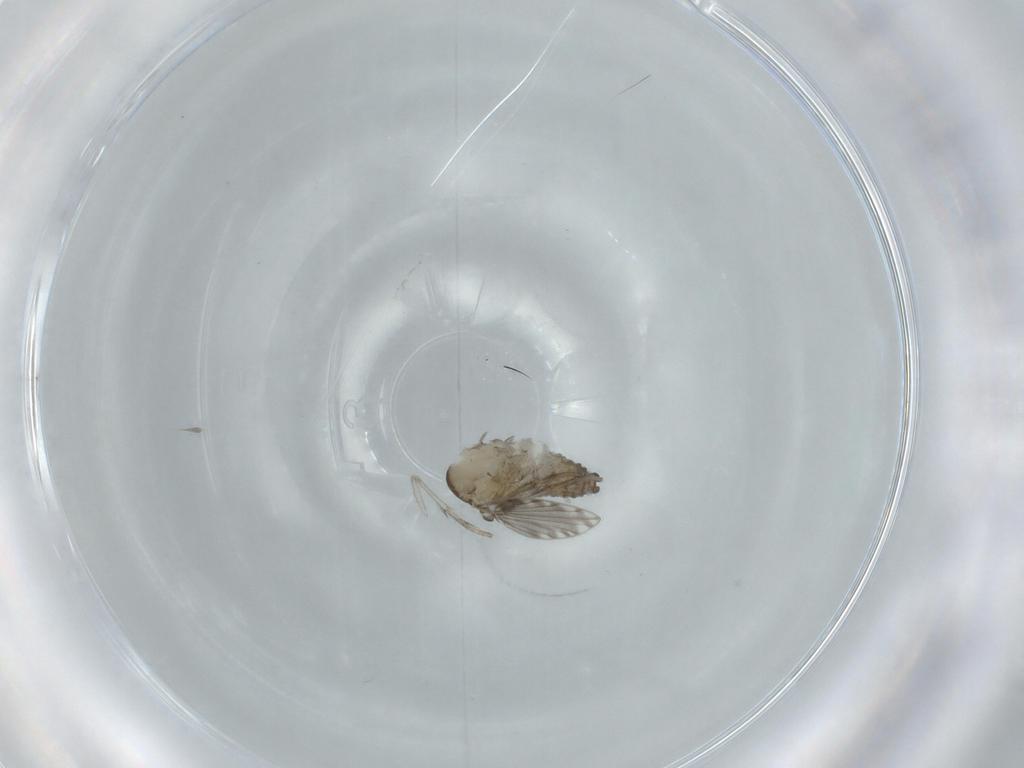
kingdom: Animalia
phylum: Arthropoda
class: Insecta
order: Diptera
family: Psychodidae
